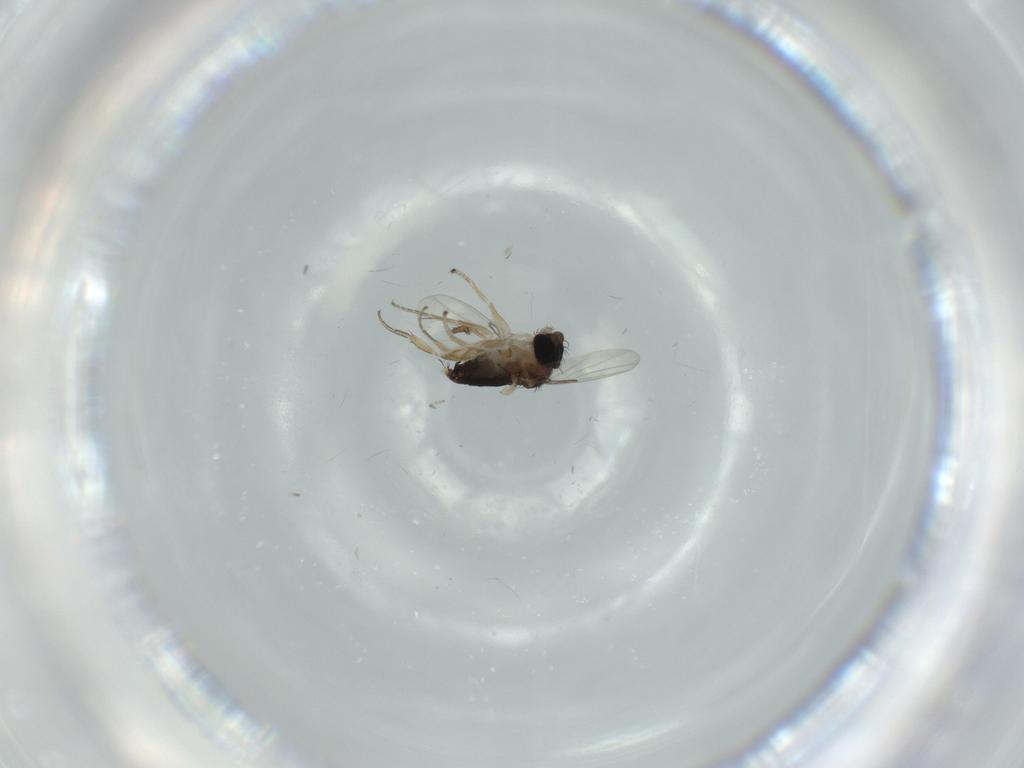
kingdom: Animalia
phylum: Arthropoda
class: Insecta
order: Diptera
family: Phoridae
